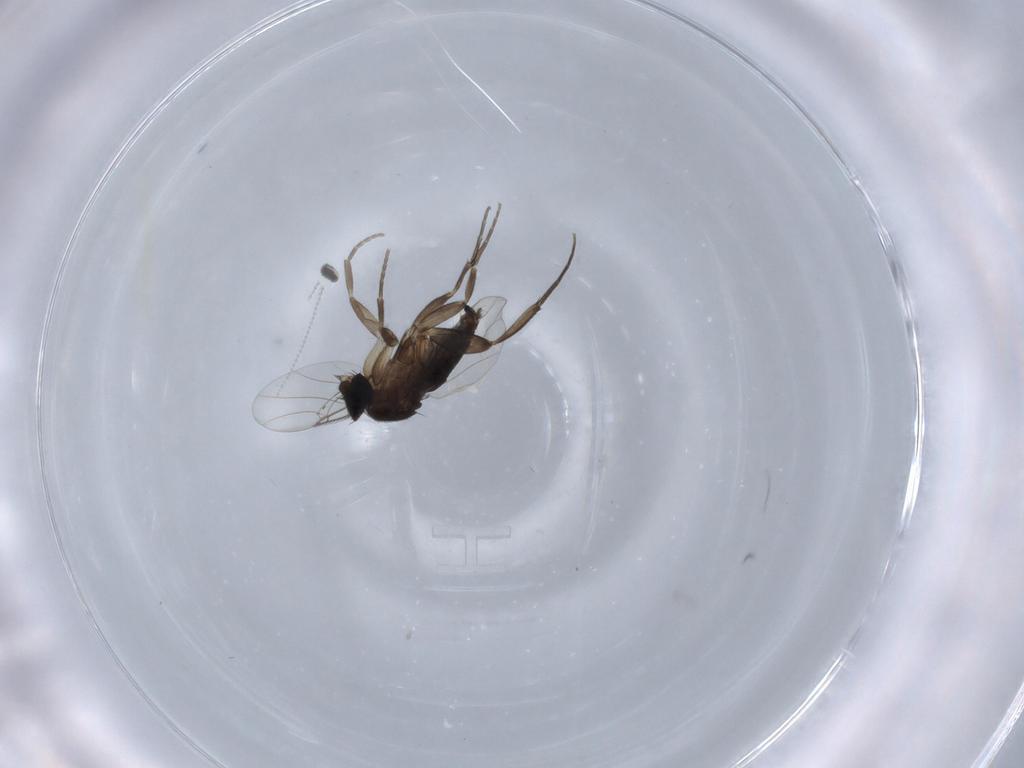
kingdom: Animalia
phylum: Arthropoda
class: Insecta
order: Diptera
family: Phoridae
